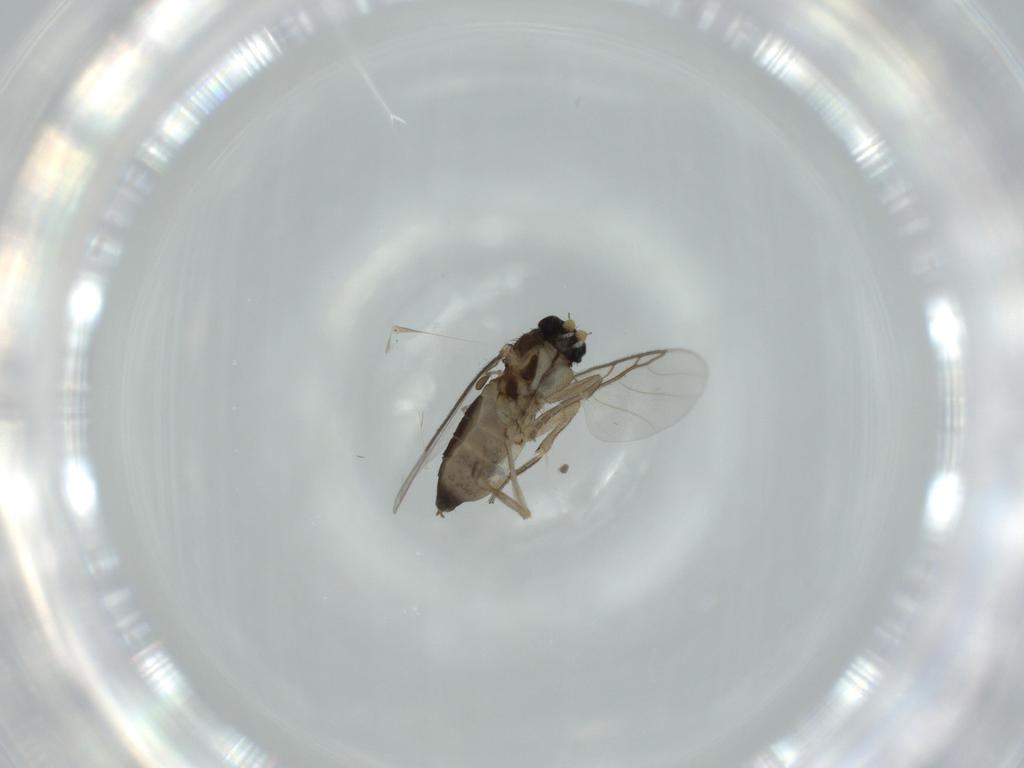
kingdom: Animalia
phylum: Arthropoda
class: Insecta
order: Diptera
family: Phoridae
